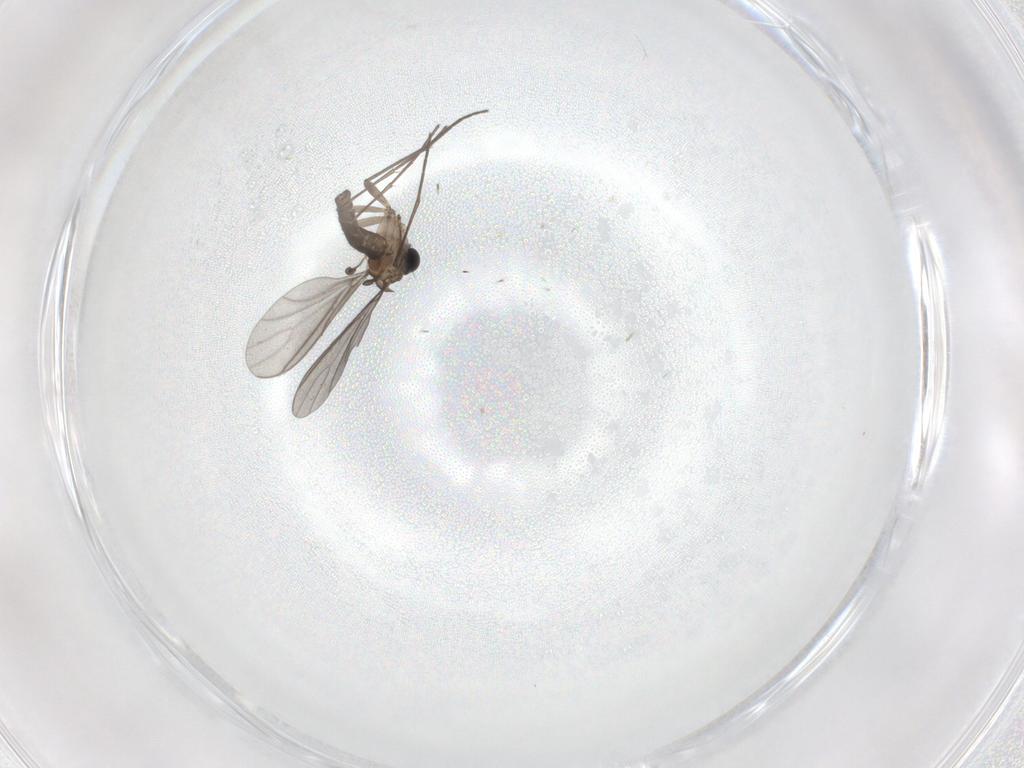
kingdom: Animalia
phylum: Arthropoda
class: Insecta
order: Diptera
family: Sciaridae
